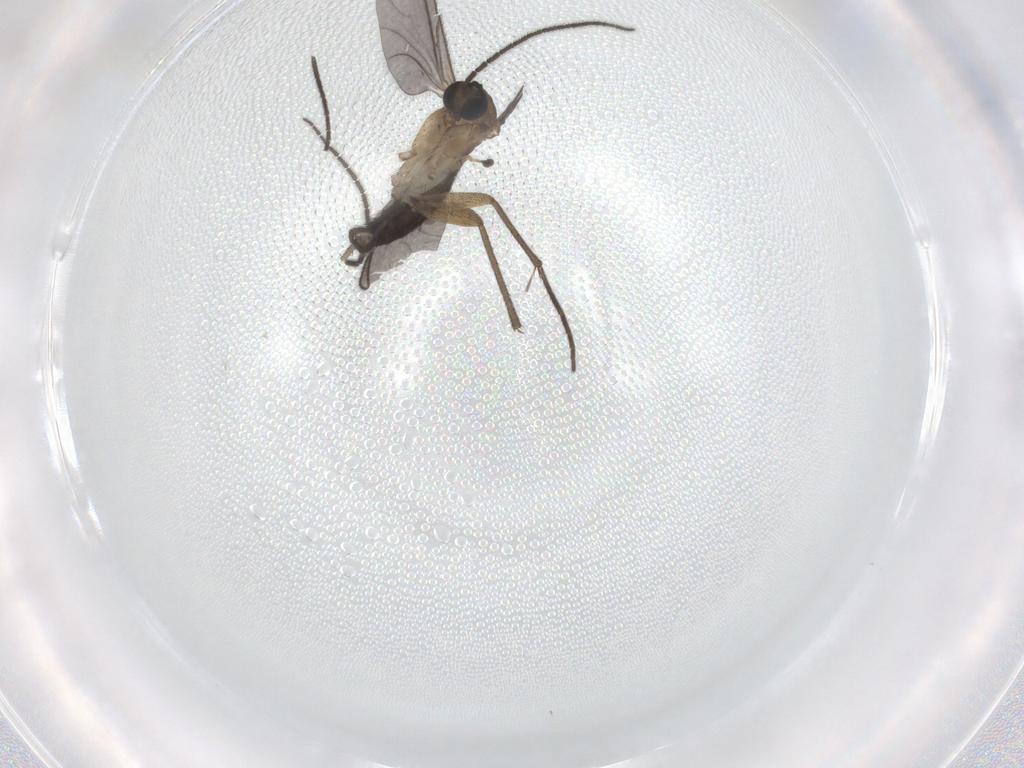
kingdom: Animalia
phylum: Arthropoda
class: Insecta
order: Diptera
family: Sciaridae
